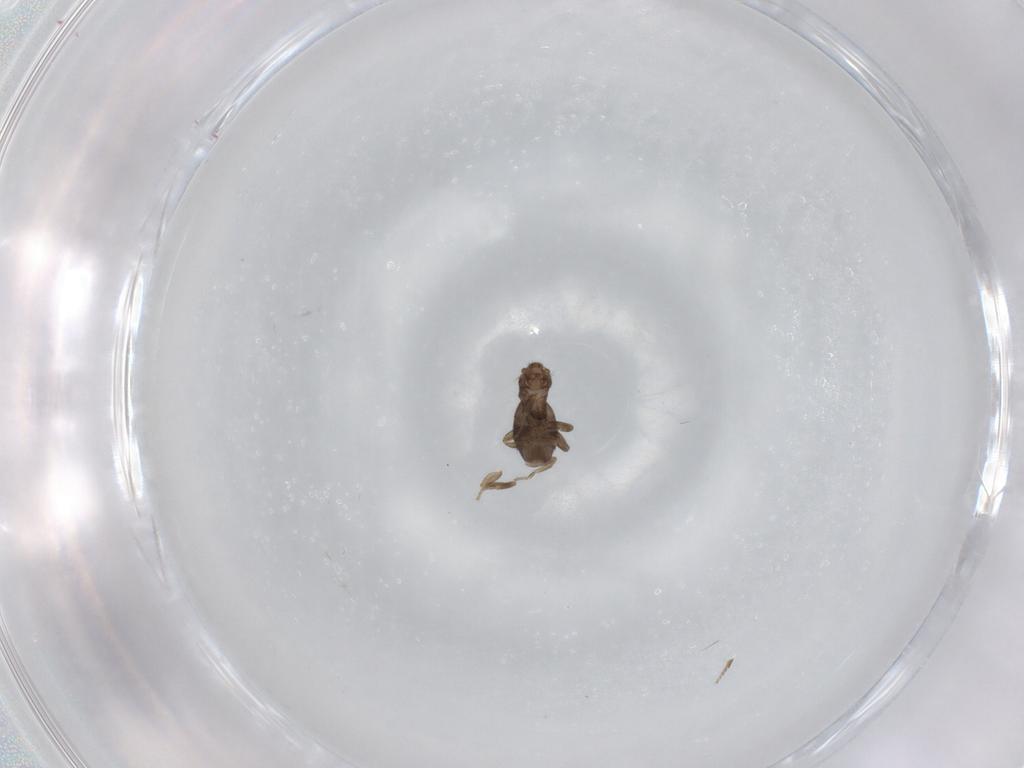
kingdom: Animalia
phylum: Arthropoda
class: Insecta
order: Diptera
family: Phoridae
